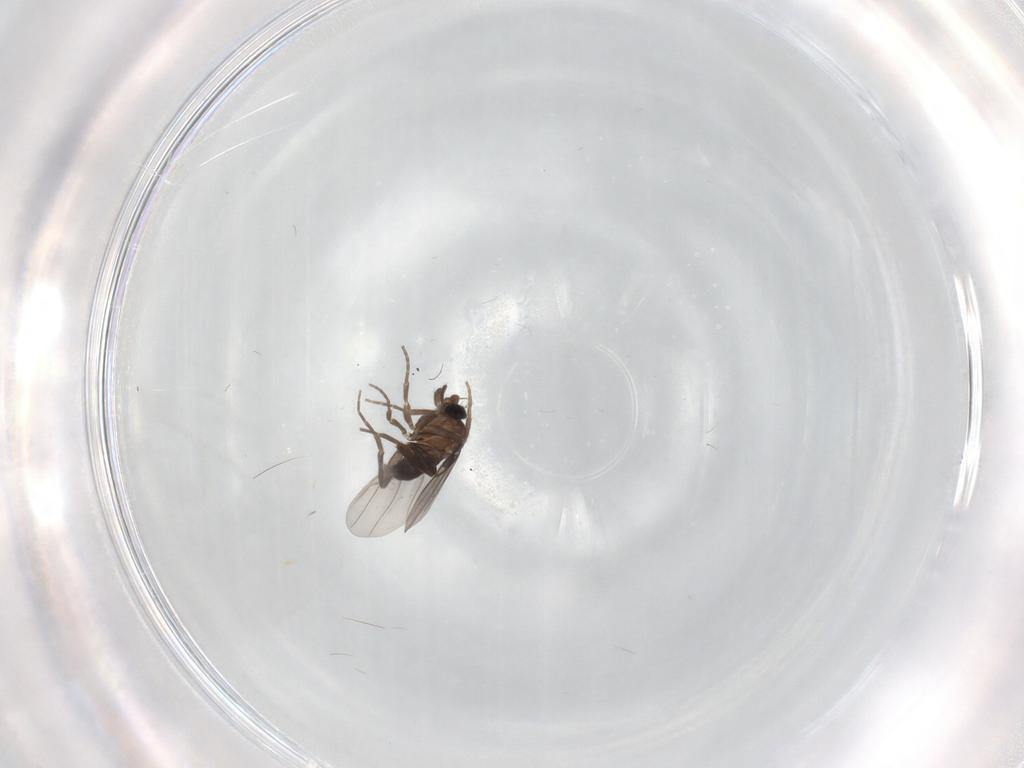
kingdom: Animalia
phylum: Arthropoda
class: Insecta
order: Diptera
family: Phoridae
